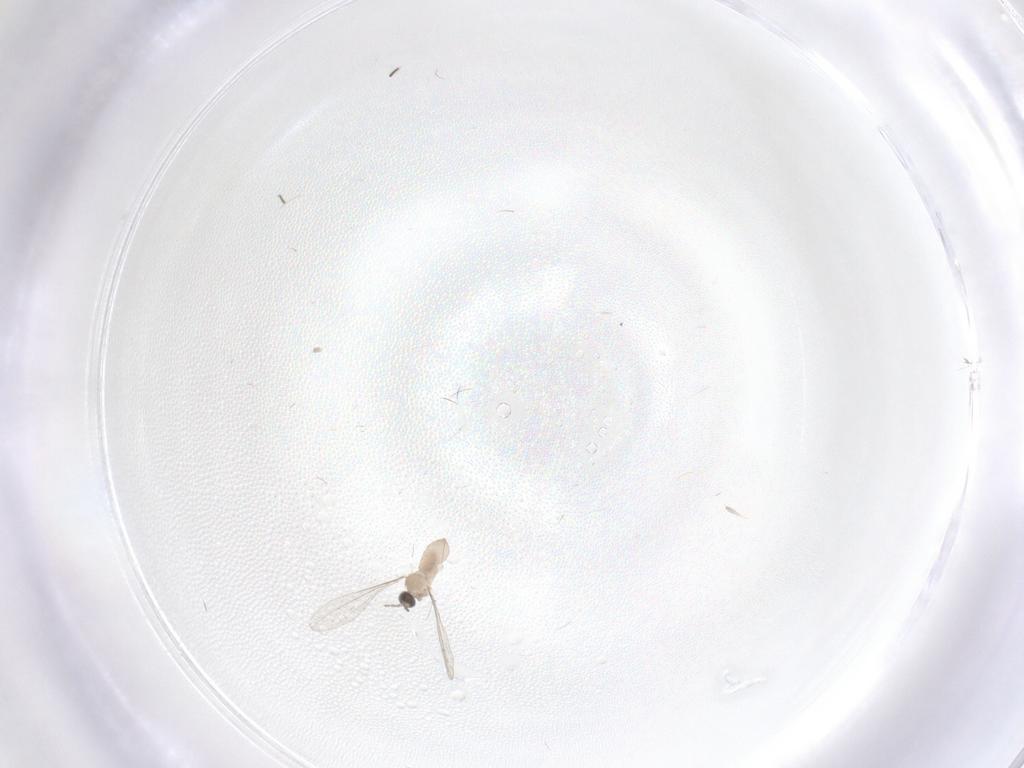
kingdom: Animalia
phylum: Arthropoda
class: Insecta
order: Diptera
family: Cecidomyiidae
